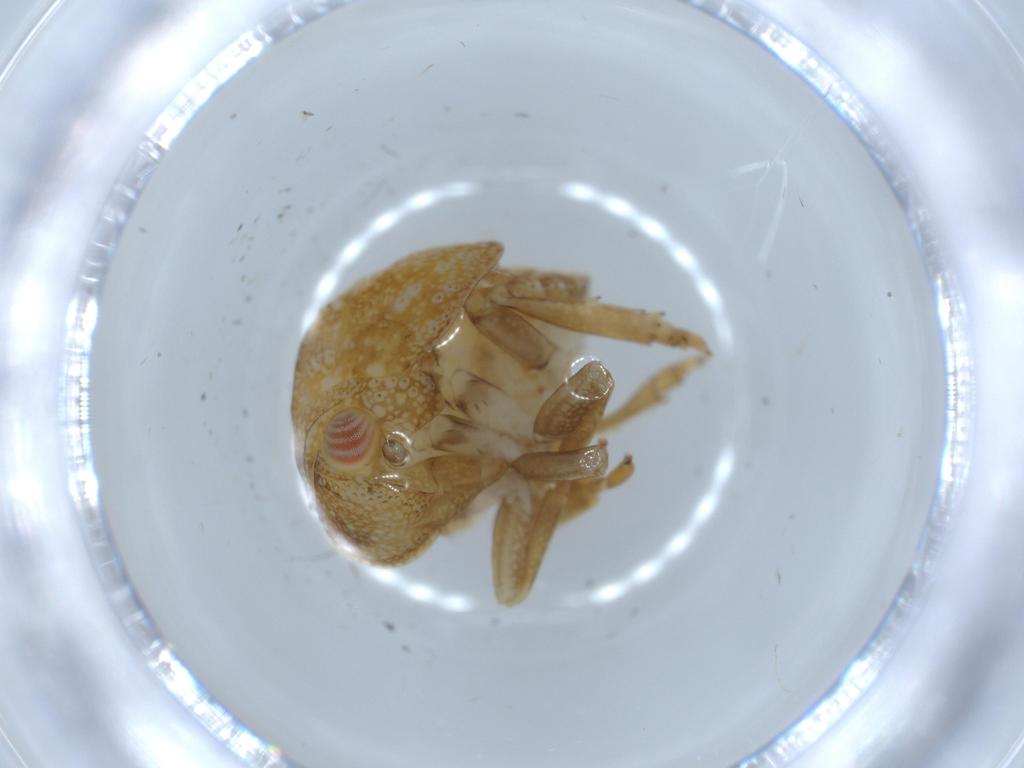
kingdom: Animalia
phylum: Arthropoda
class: Insecta
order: Hemiptera
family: Acanaloniidae
